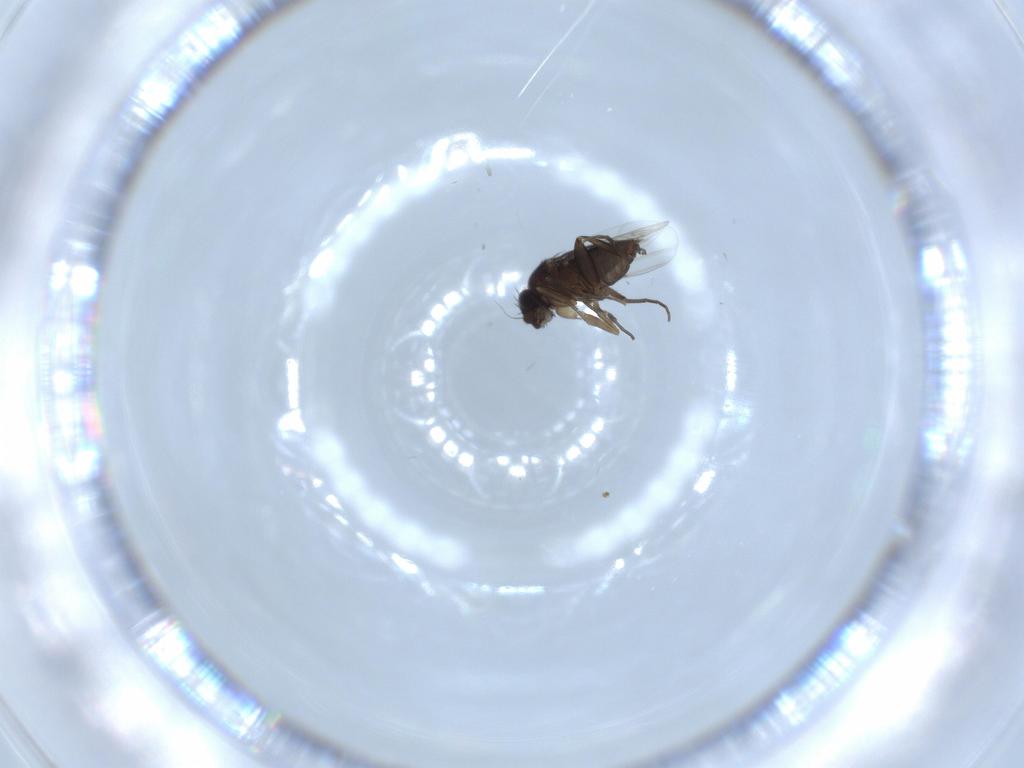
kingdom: Animalia
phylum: Arthropoda
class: Insecta
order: Diptera
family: Phoridae
